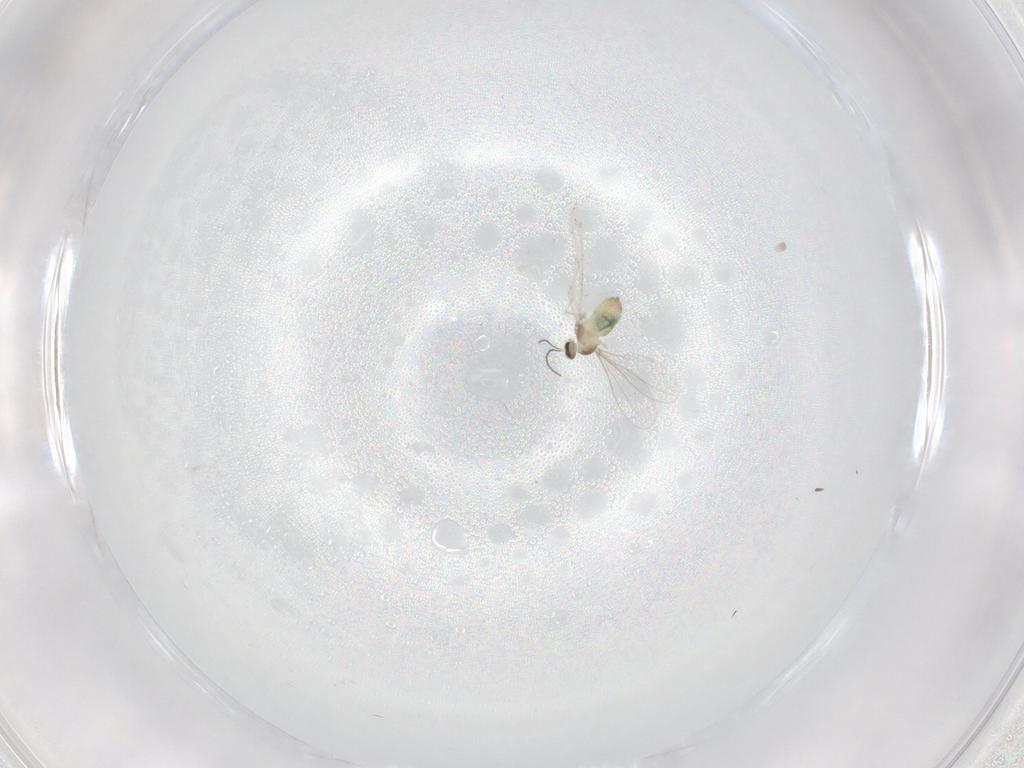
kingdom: Animalia
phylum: Arthropoda
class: Insecta
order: Diptera
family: Cecidomyiidae
